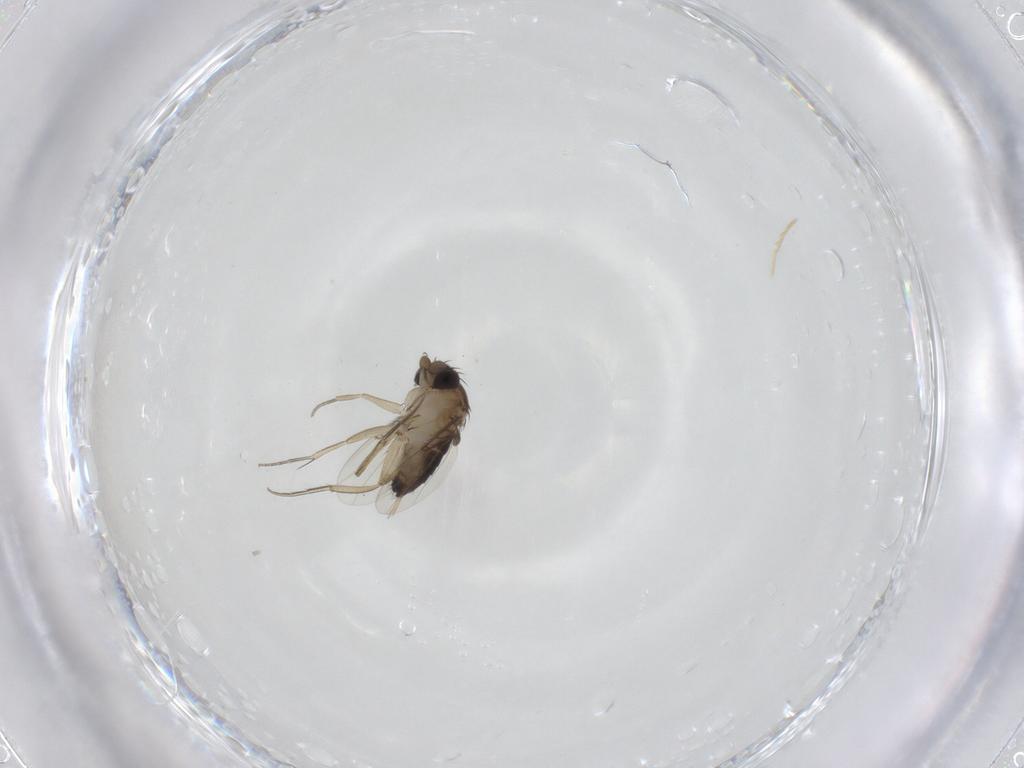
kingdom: Animalia
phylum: Arthropoda
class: Insecta
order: Diptera
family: Phoridae
